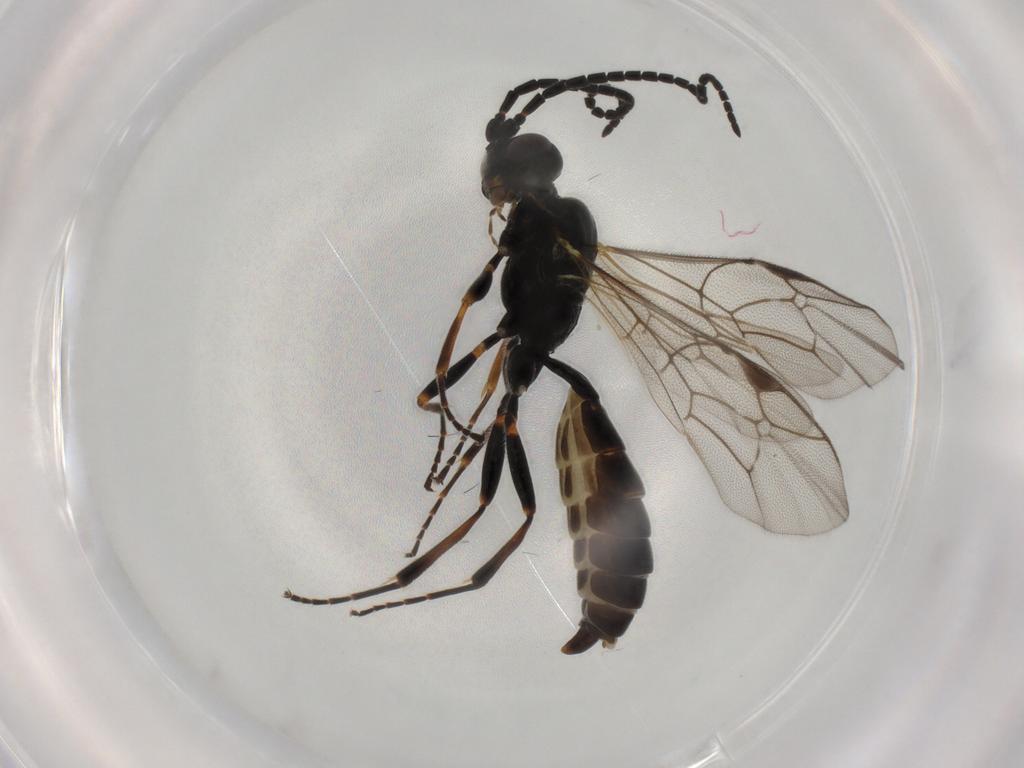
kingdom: Animalia
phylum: Arthropoda
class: Insecta
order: Hymenoptera
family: Ichneumonidae
